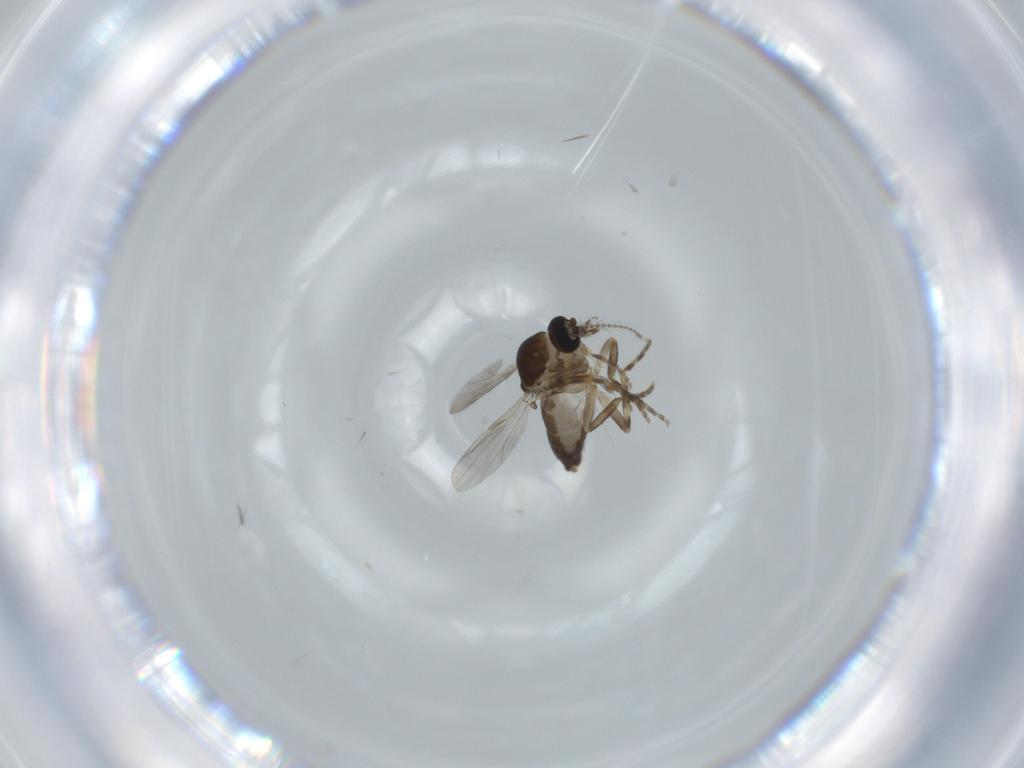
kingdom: Animalia
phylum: Arthropoda
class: Insecta
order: Diptera
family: Ceratopogonidae
